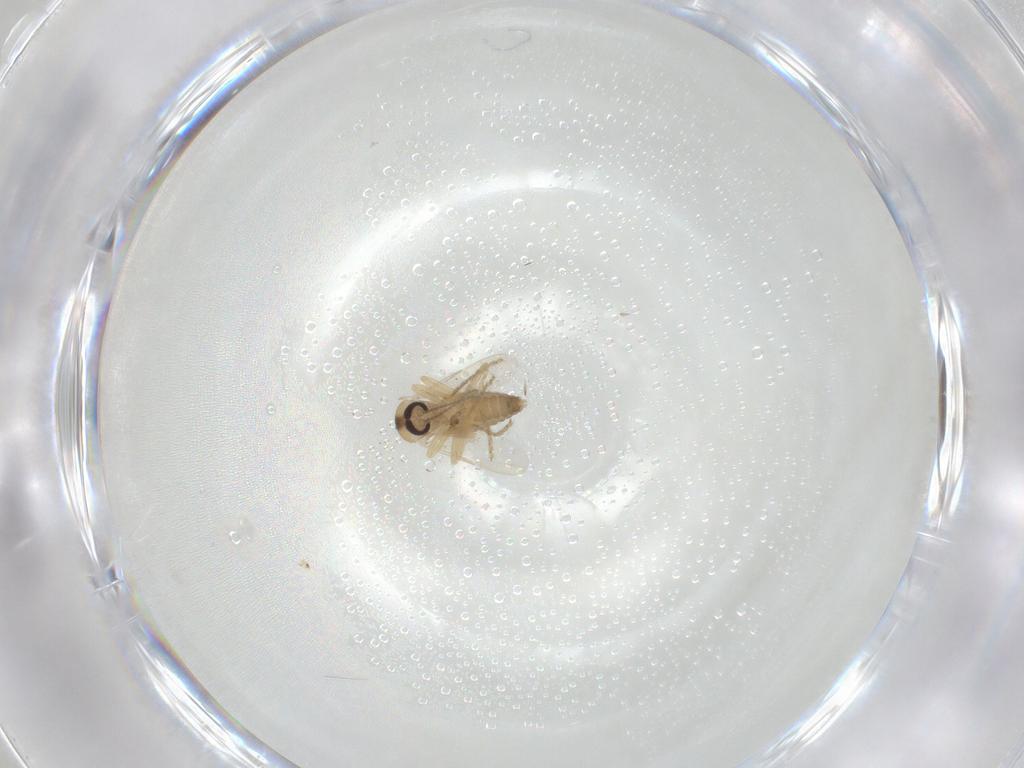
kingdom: Animalia
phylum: Arthropoda
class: Insecta
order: Diptera
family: Ceratopogonidae
